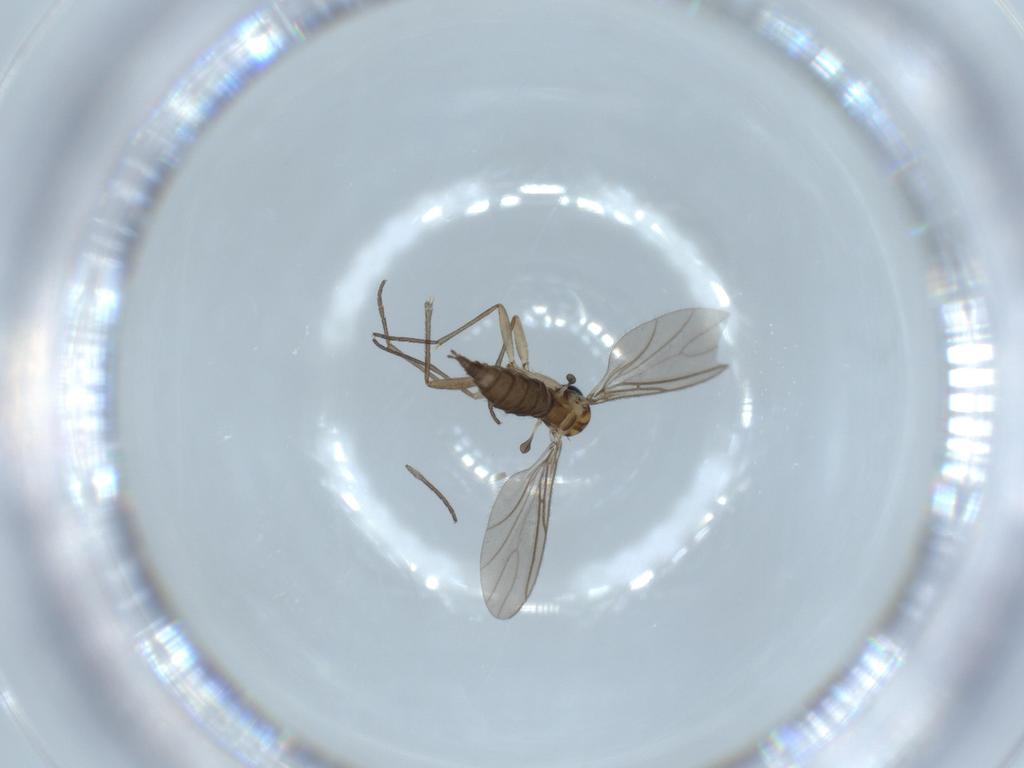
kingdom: Animalia
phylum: Arthropoda
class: Insecta
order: Diptera
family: Sciaridae
